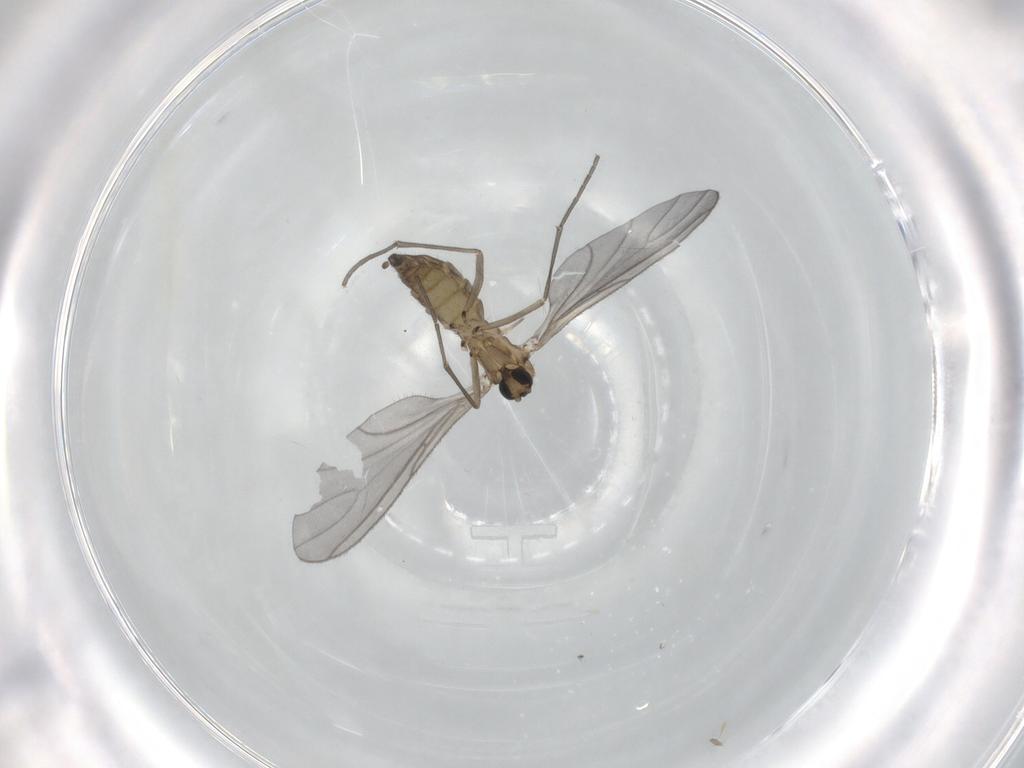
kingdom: Animalia
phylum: Arthropoda
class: Insecta
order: Diptera
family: Sciaridae
